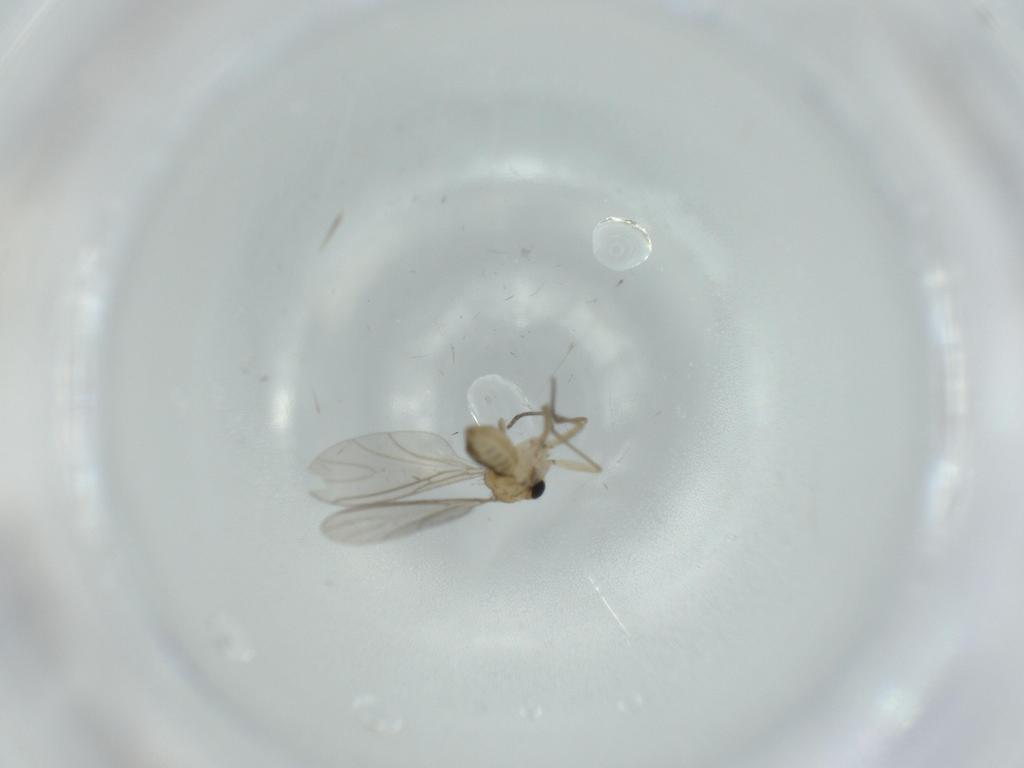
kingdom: Animalia
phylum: Arthropoda
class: Insecta
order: Diptera
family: Sciaridae
